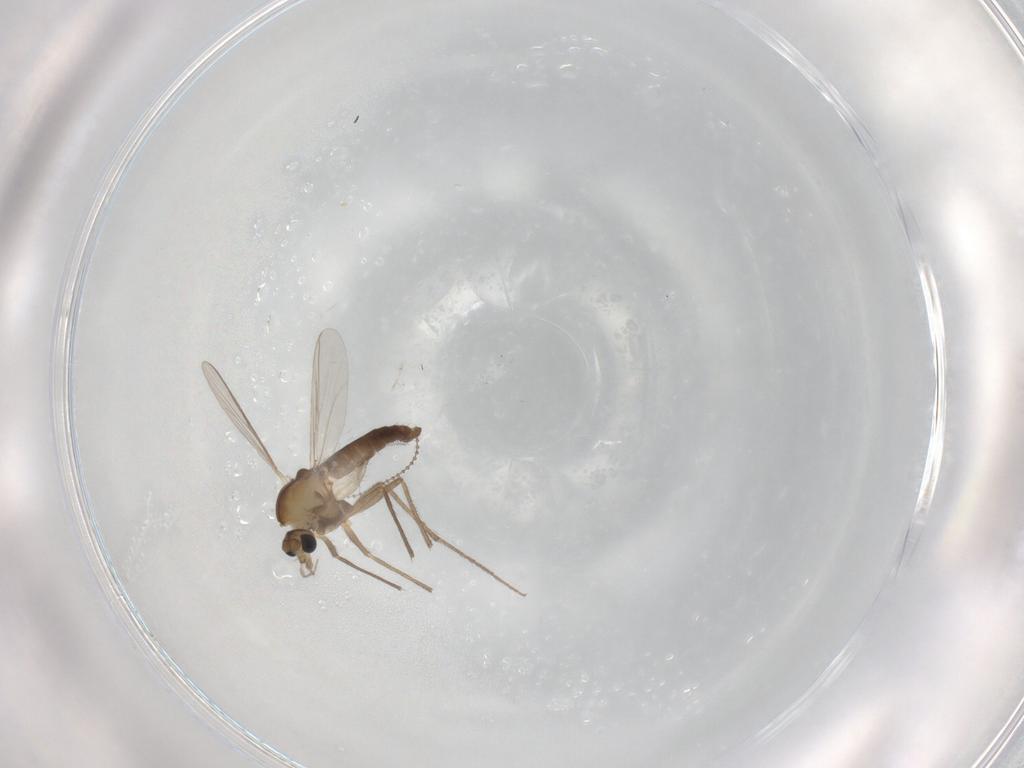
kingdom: Animalia
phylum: Arthropoda
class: Insecta
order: Diptera
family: Chironomidae
